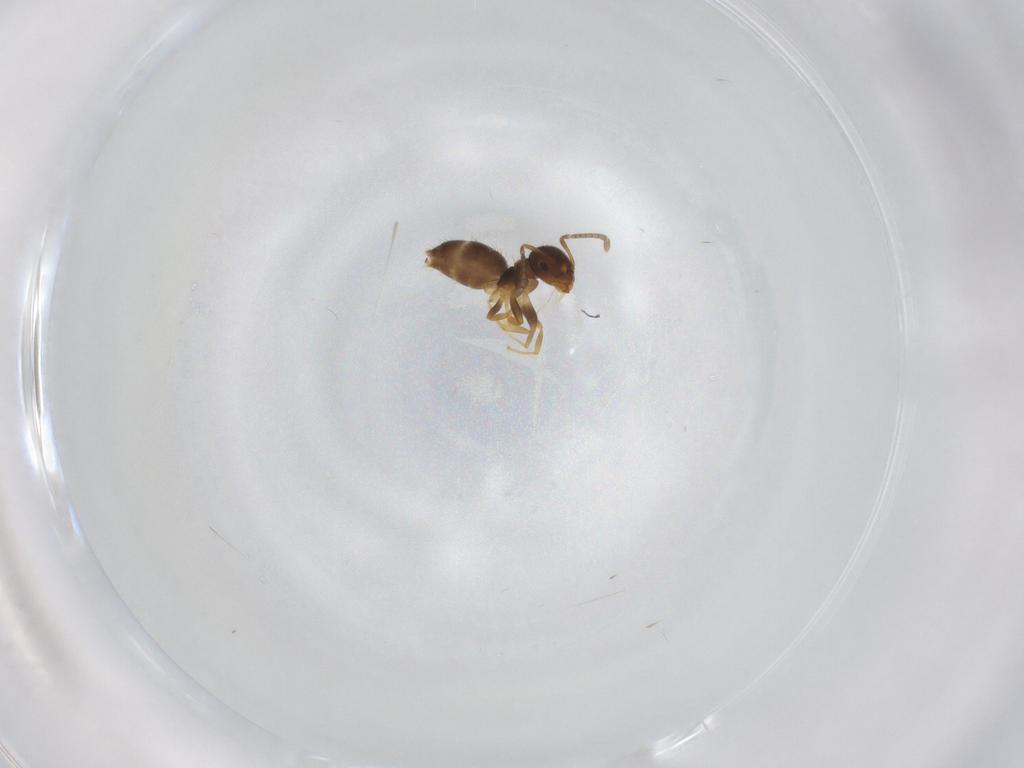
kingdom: Animalia
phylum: Arthropoda
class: Insecta
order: Hymenoptera
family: Formicidae
